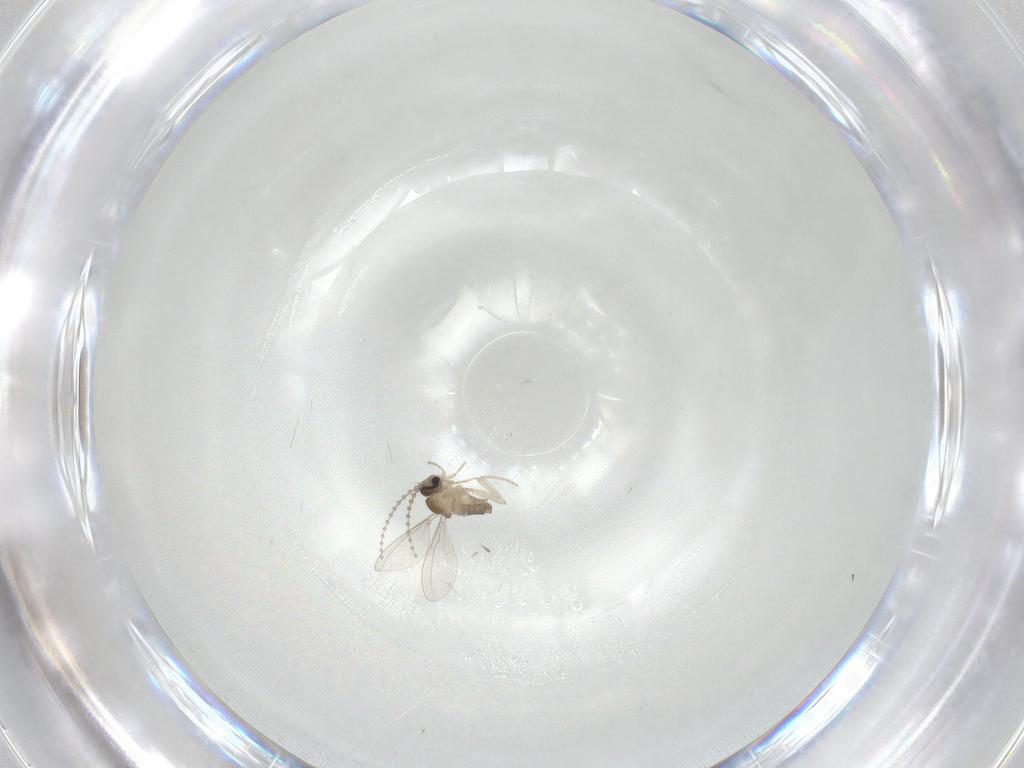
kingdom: Animalia
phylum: Arthropoda
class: Insecta
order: Diptera
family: Cecidomyiidae
